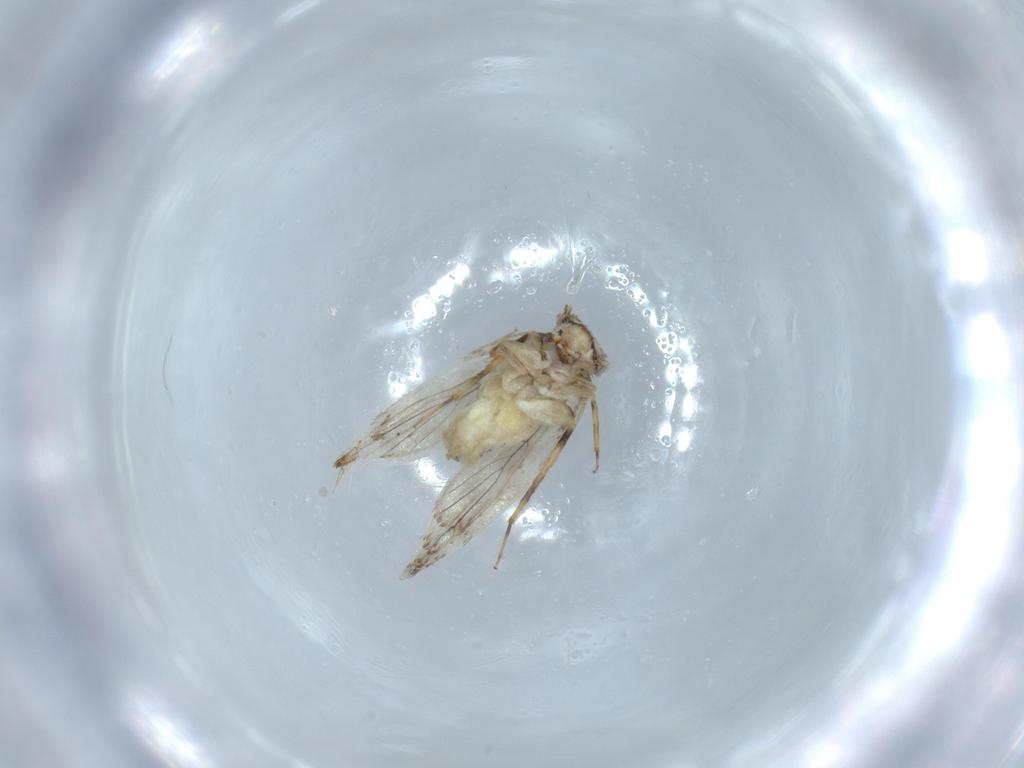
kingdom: Animalia
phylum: Arthropoda
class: Insecta
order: Psocodea
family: Lepidopsocidae
